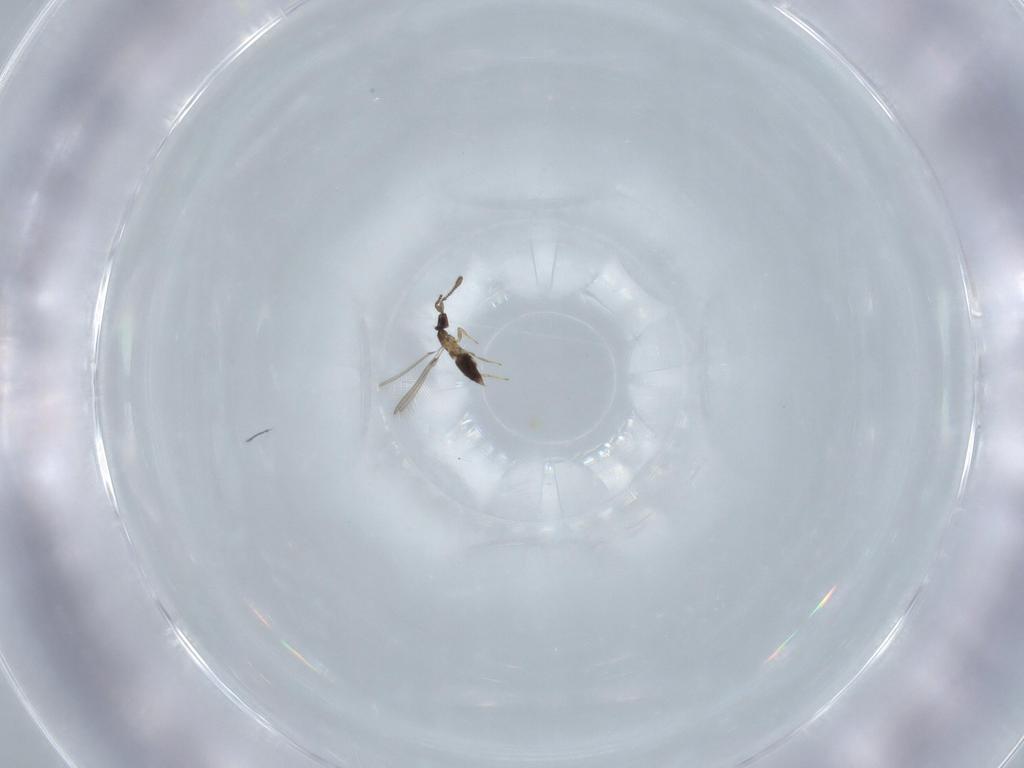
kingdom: Animalia
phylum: Arthropoda
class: Insecta
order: Hymenoptera
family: Mymaridae
